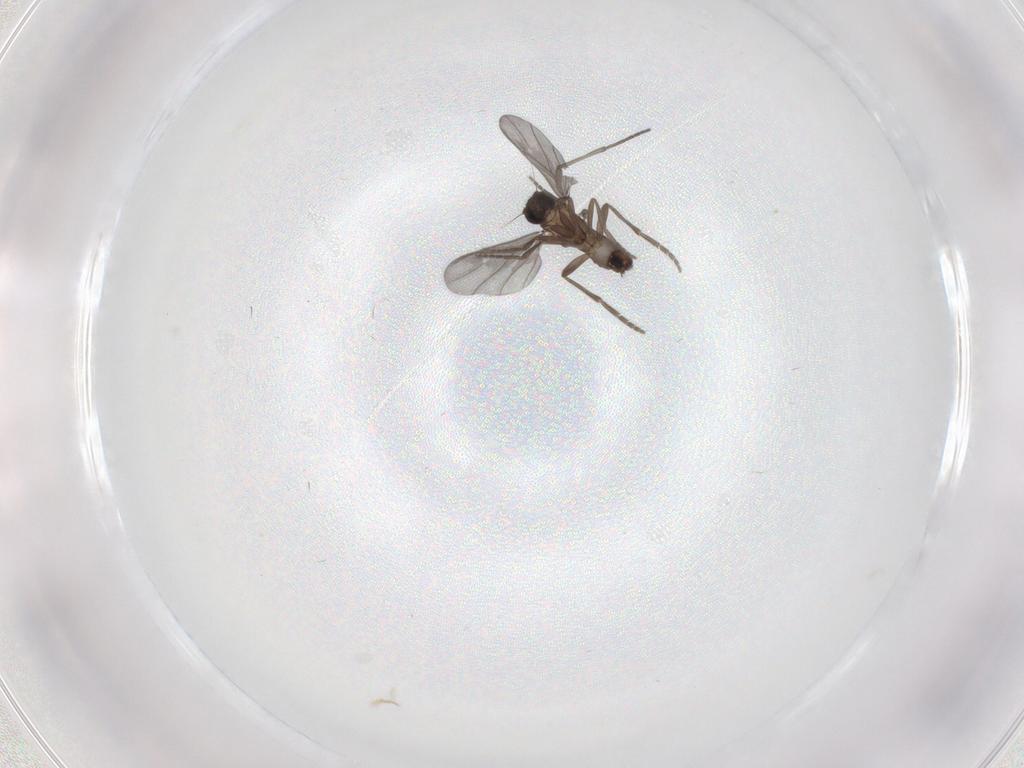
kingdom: Animalia
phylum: Arthropoda
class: Insecta
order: Diptera
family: Phoridae
